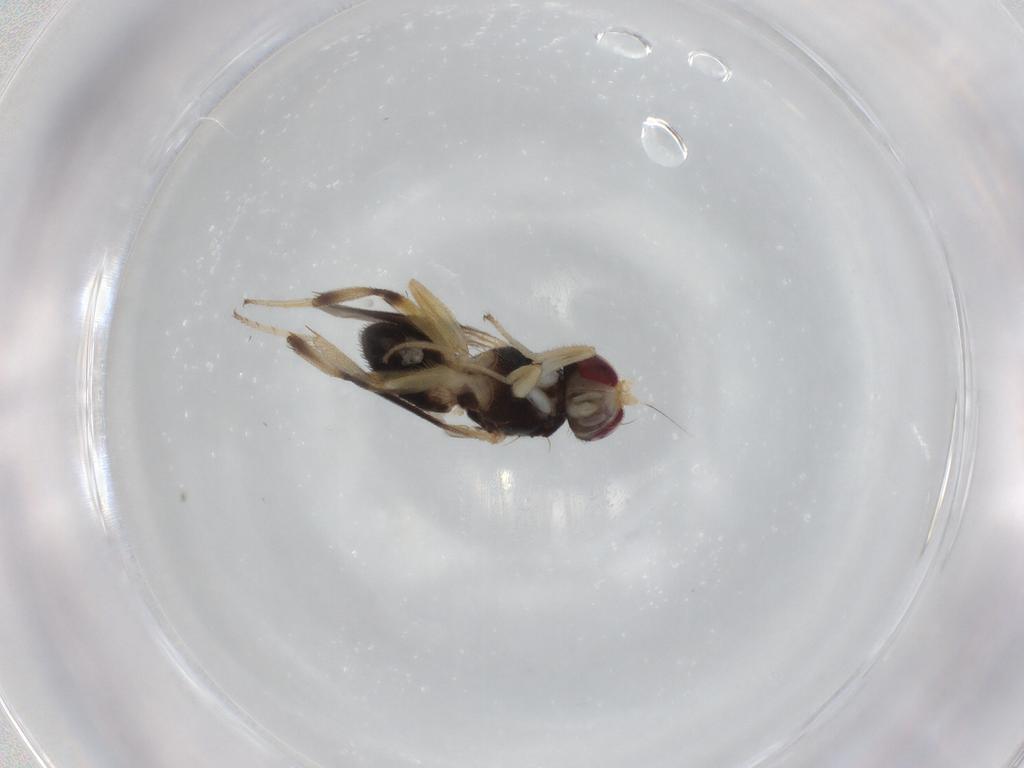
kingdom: Animalia
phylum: Arthropoda
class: Insecta
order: Diptera
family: Clusiidae
